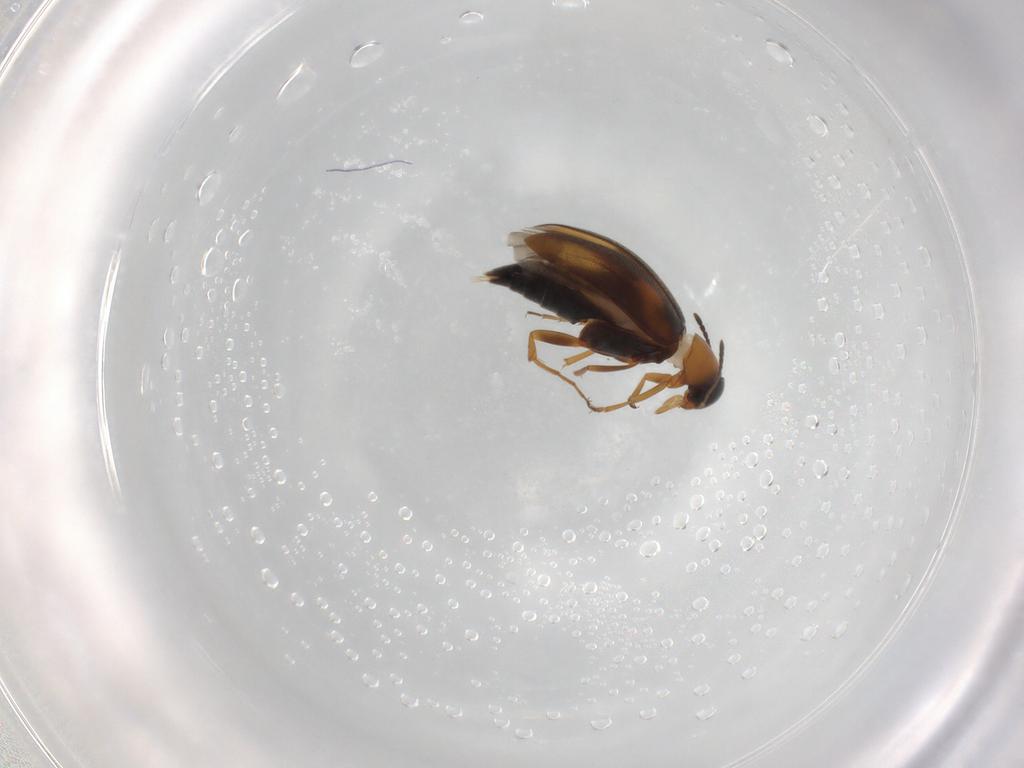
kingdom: Animalia
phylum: Arthropoda
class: Insecta
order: Coleoptera
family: Scraptiidae
